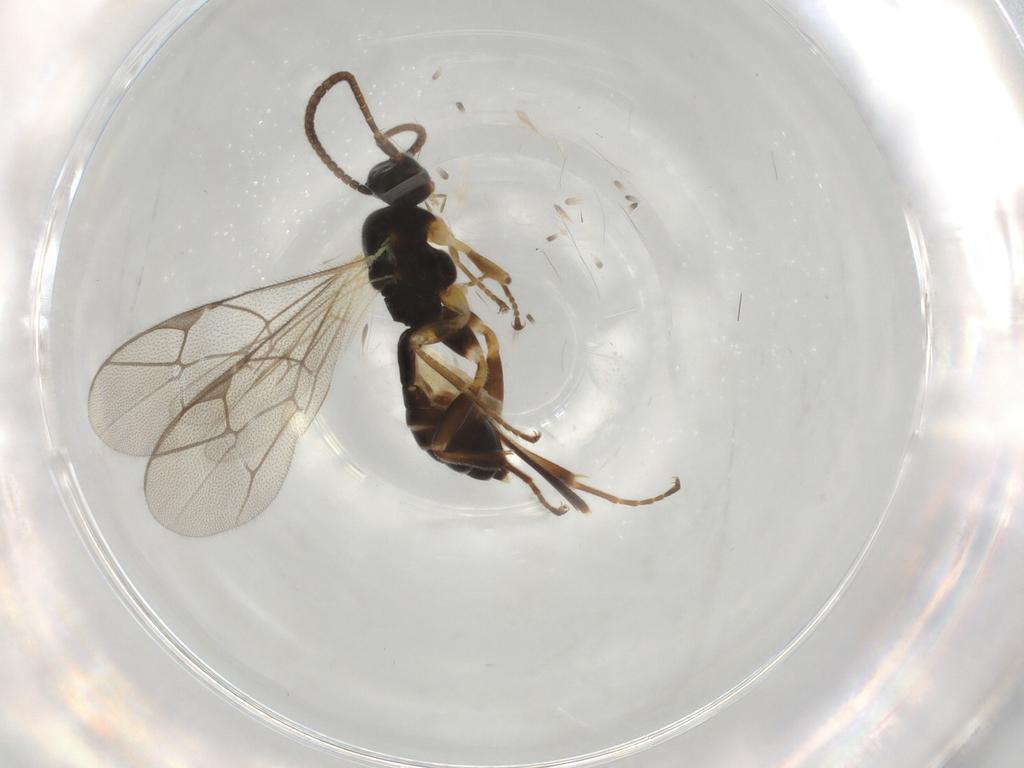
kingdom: Animalia
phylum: Arthropoda
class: Insecta
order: Hymenoptera
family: Ichneumonidae
